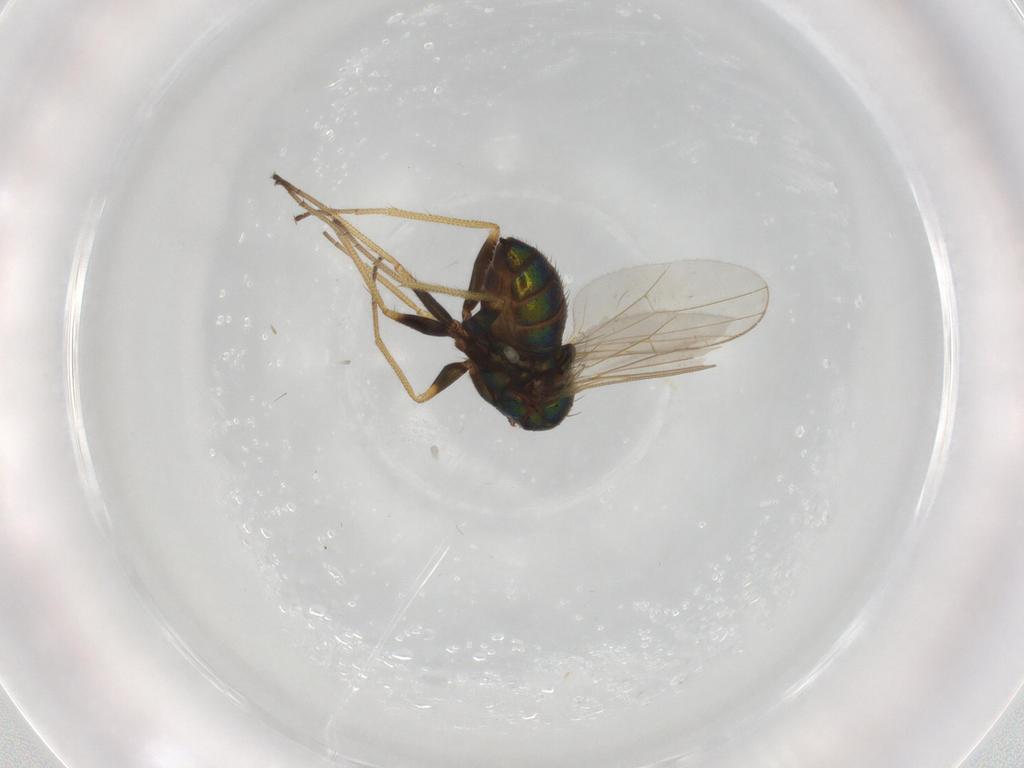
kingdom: Animalia
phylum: Arthropoda
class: Insecta
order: Diptera
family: Dolichopodidae
